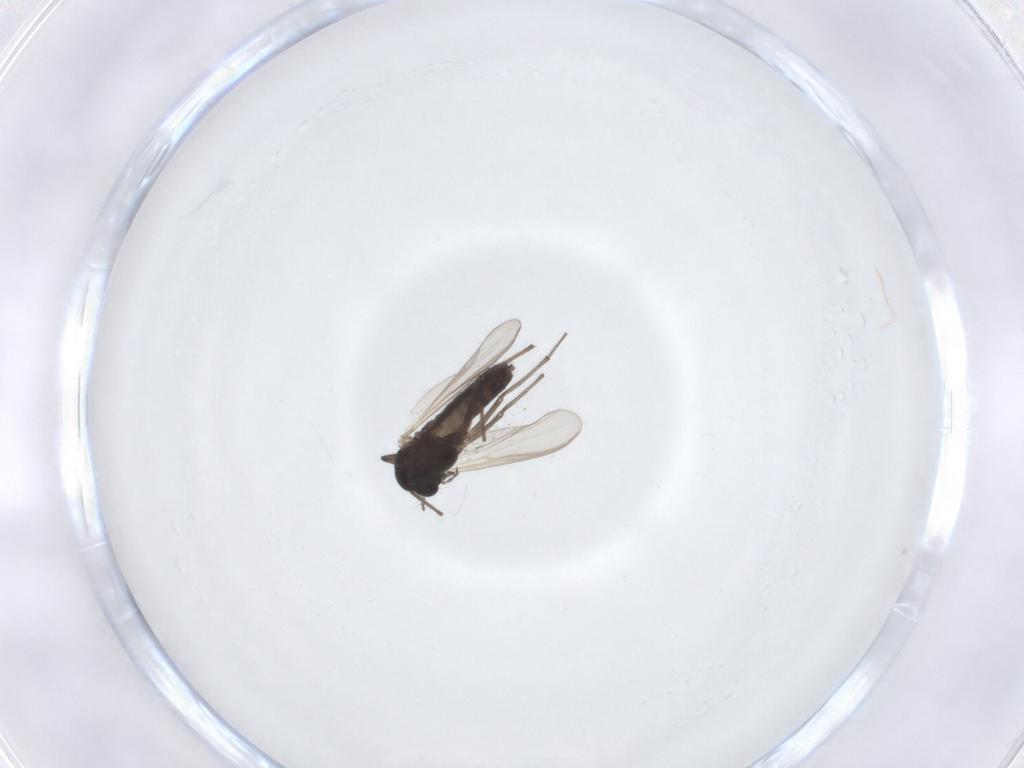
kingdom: Animalia
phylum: Arthropoda
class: Insecta
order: Diptera
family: Chironomidae
